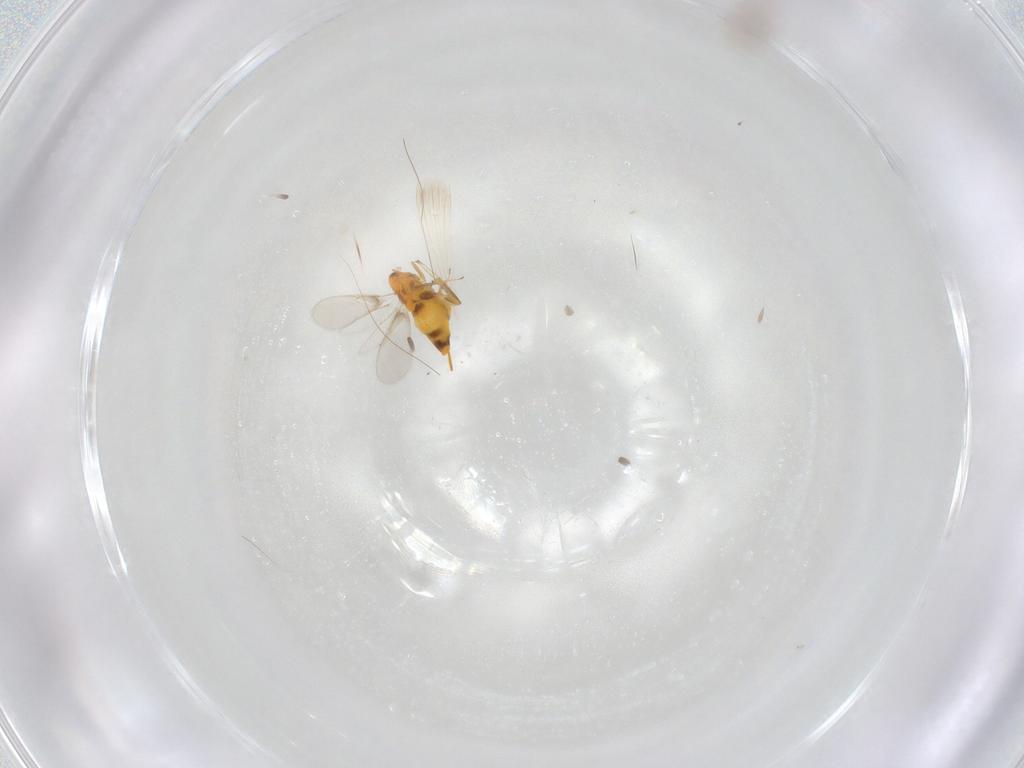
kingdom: Animalia
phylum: Arthropoda
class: Insecta
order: Hymenoptera
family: Aphelinidae
